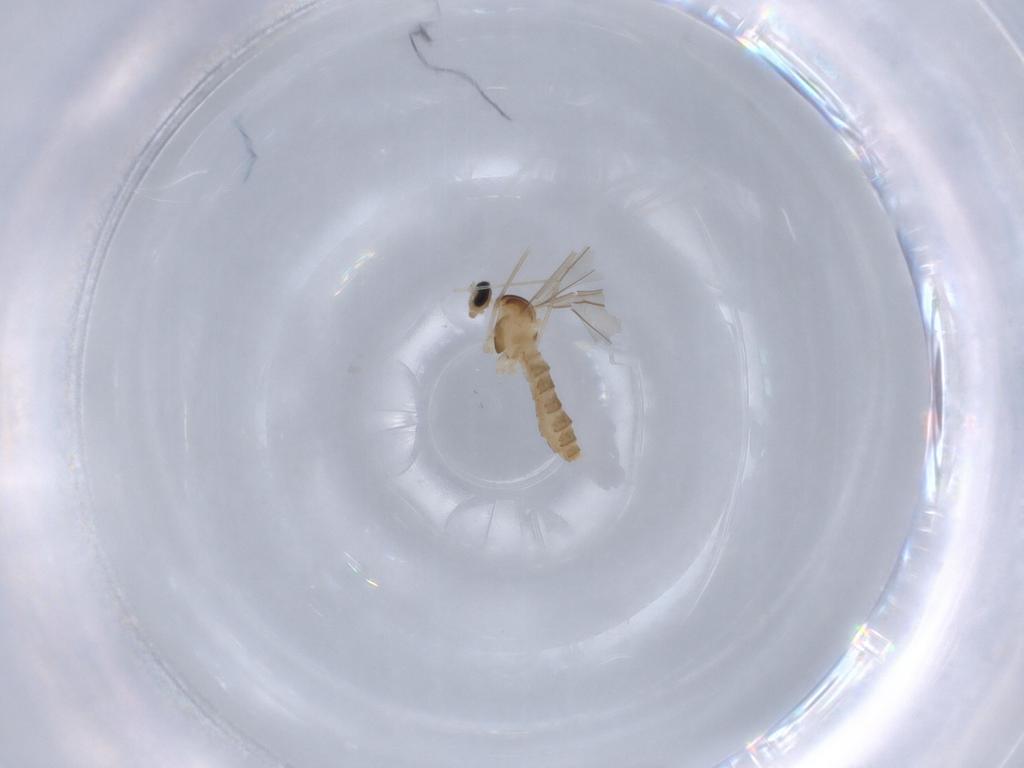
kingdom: Animalia
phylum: Arthropoda
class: Insecta
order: Diptera
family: Cecidomyiidae
